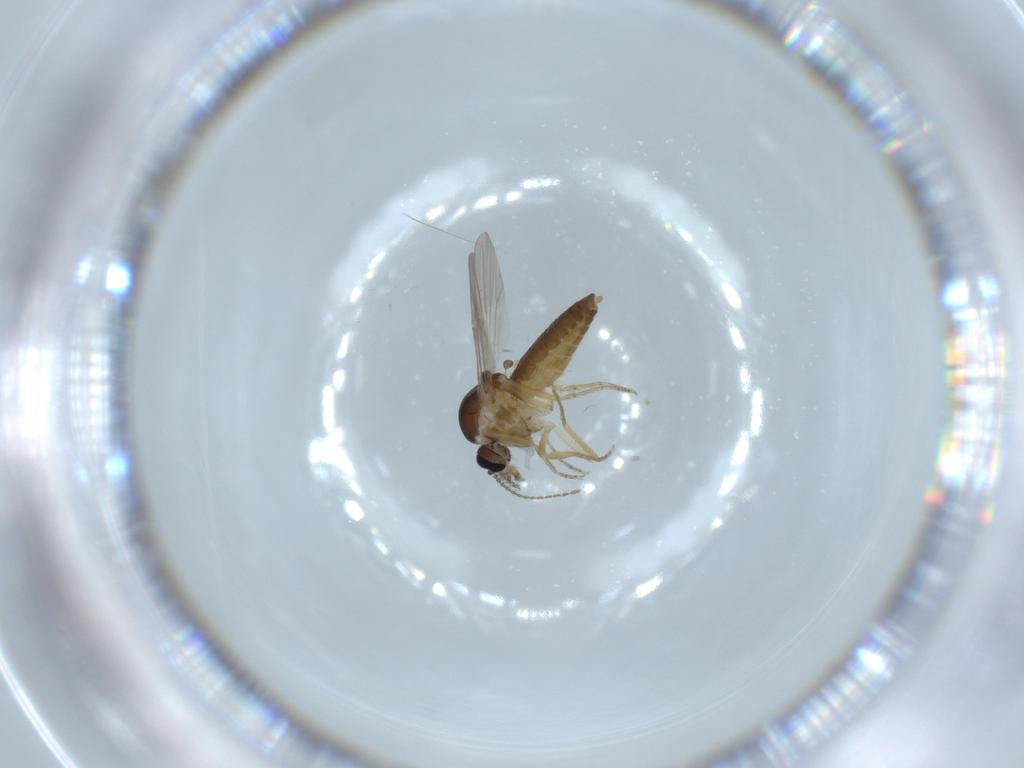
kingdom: Animalia
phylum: Arthropoda
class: Insecta
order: Diptera
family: Ceratopogonidae
